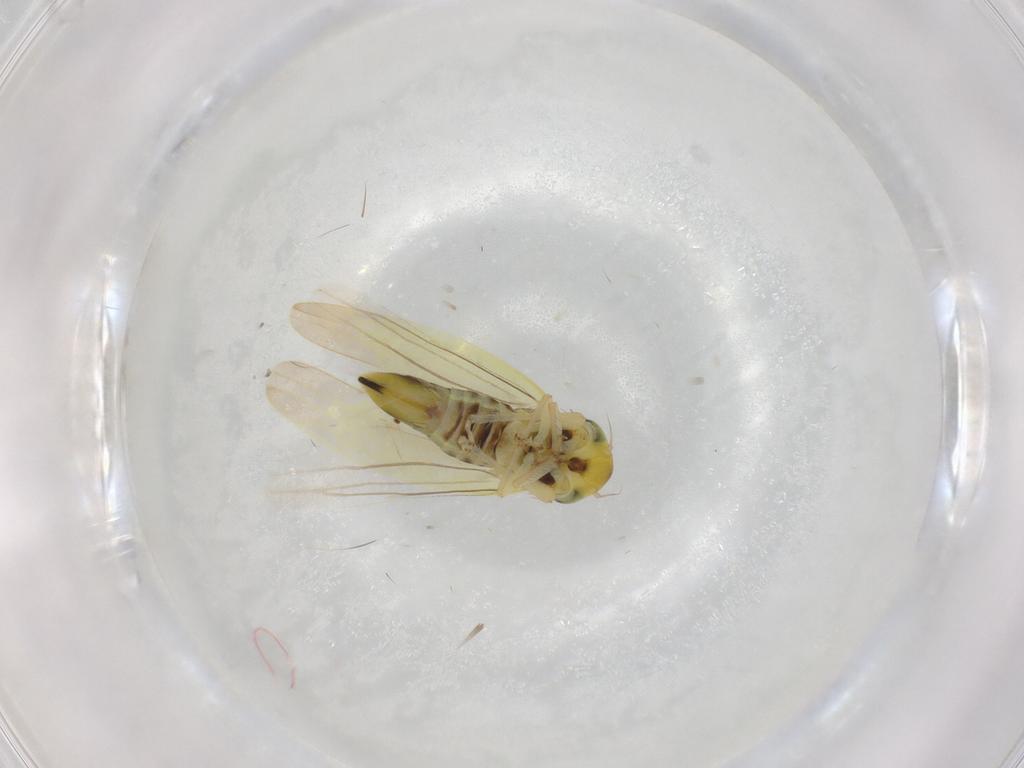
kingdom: Animalia
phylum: Arthropoda
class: Insecta
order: Hemiptera
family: Cicadellidae
